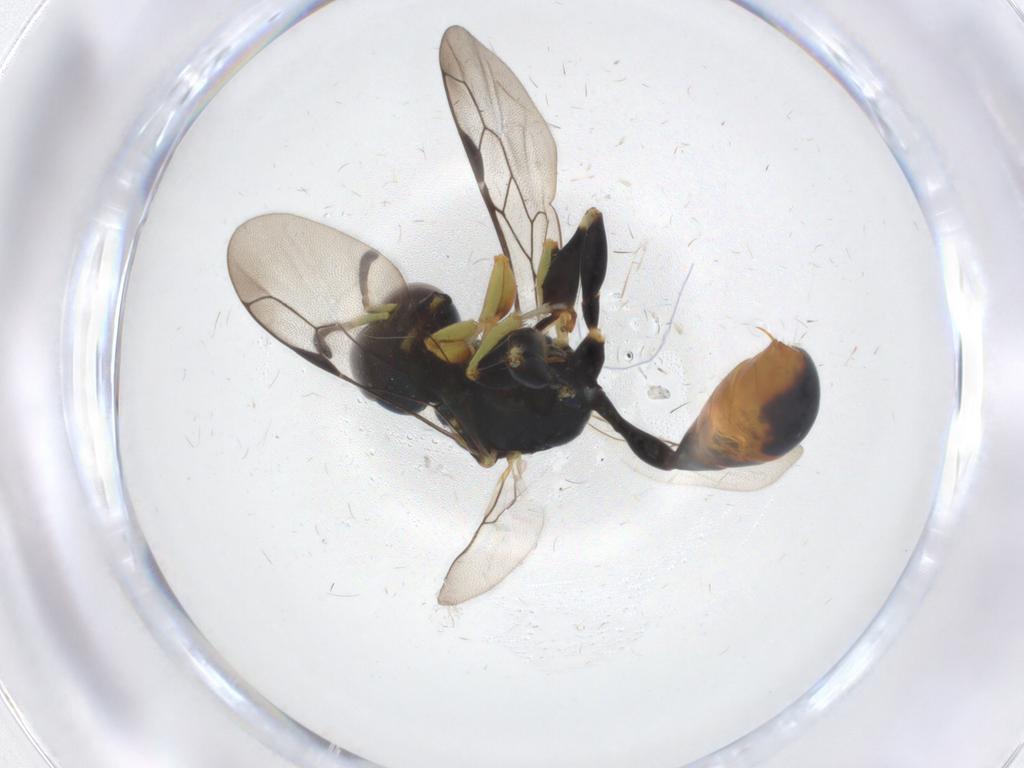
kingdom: Animalia
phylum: Arthropoda
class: Insecta
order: Hymenoptera
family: Crabronidae
